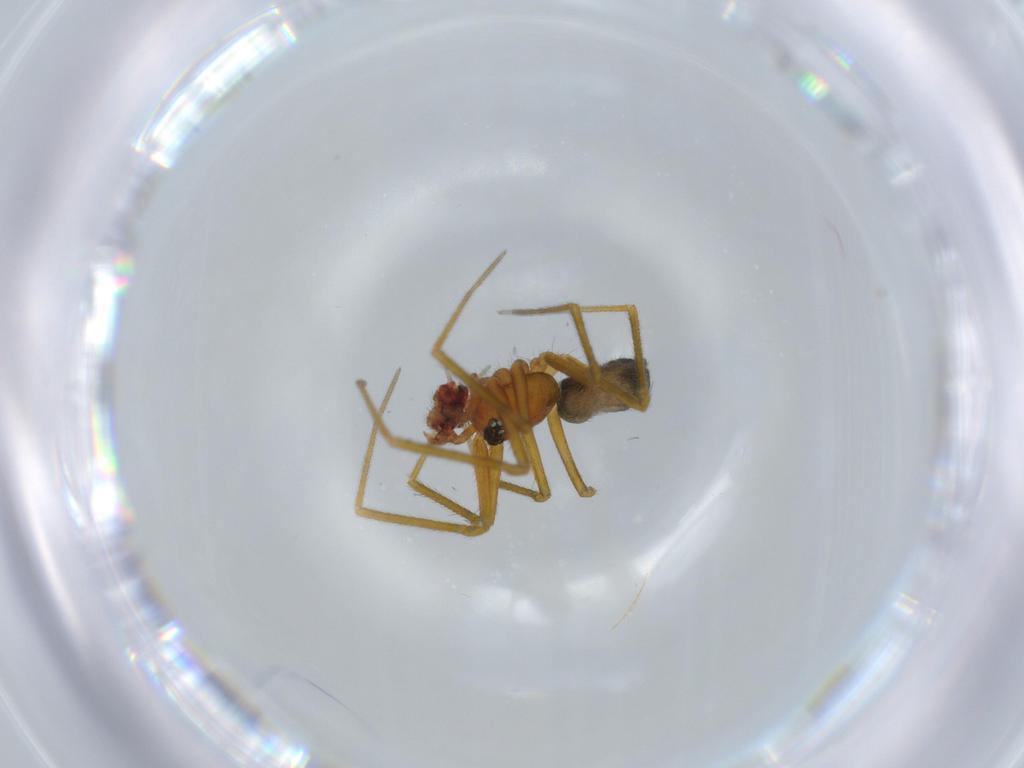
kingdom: Animalia
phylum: Arthropoda
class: Arachnida
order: Araneae
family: Linyphiidae
